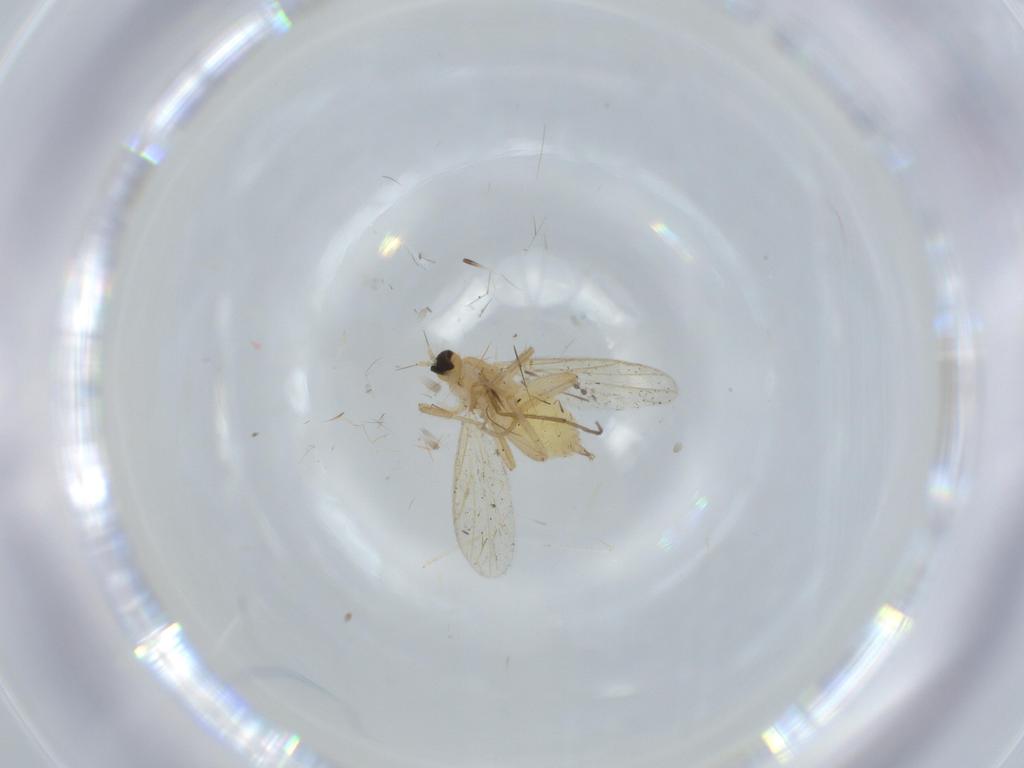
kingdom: Animalia
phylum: Arthropoda
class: Insecta
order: Diptera
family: Hybotidae
